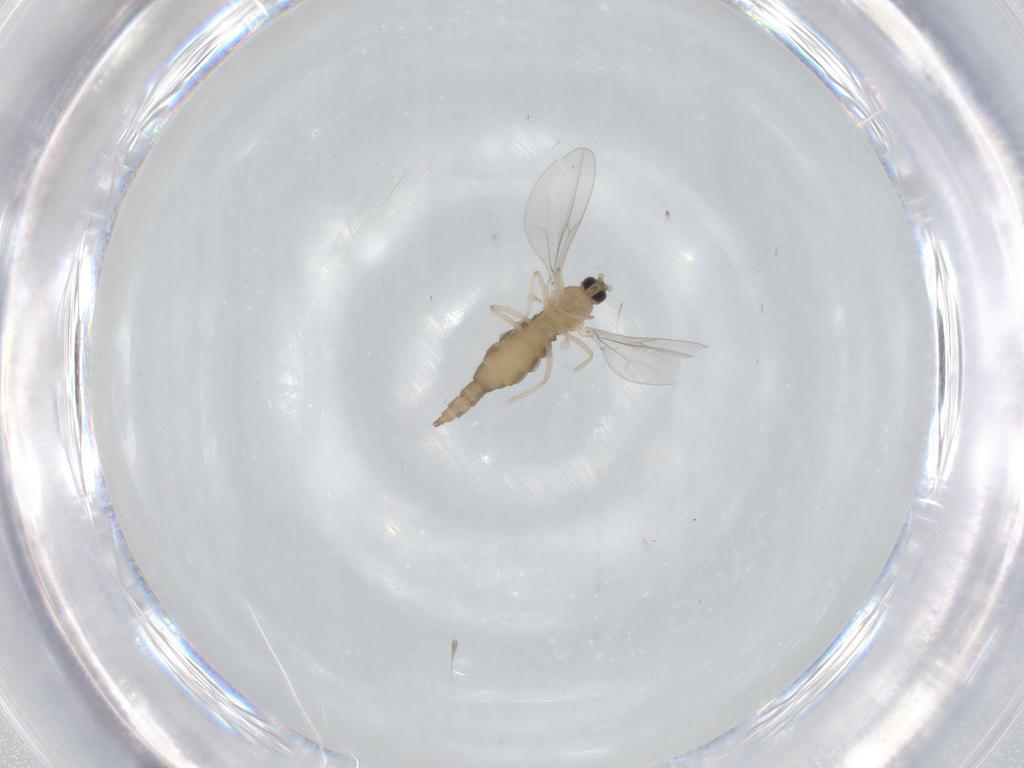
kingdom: Animalia
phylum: Arthropoda
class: Insecta
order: Diptera
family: Cecidomyiidae
